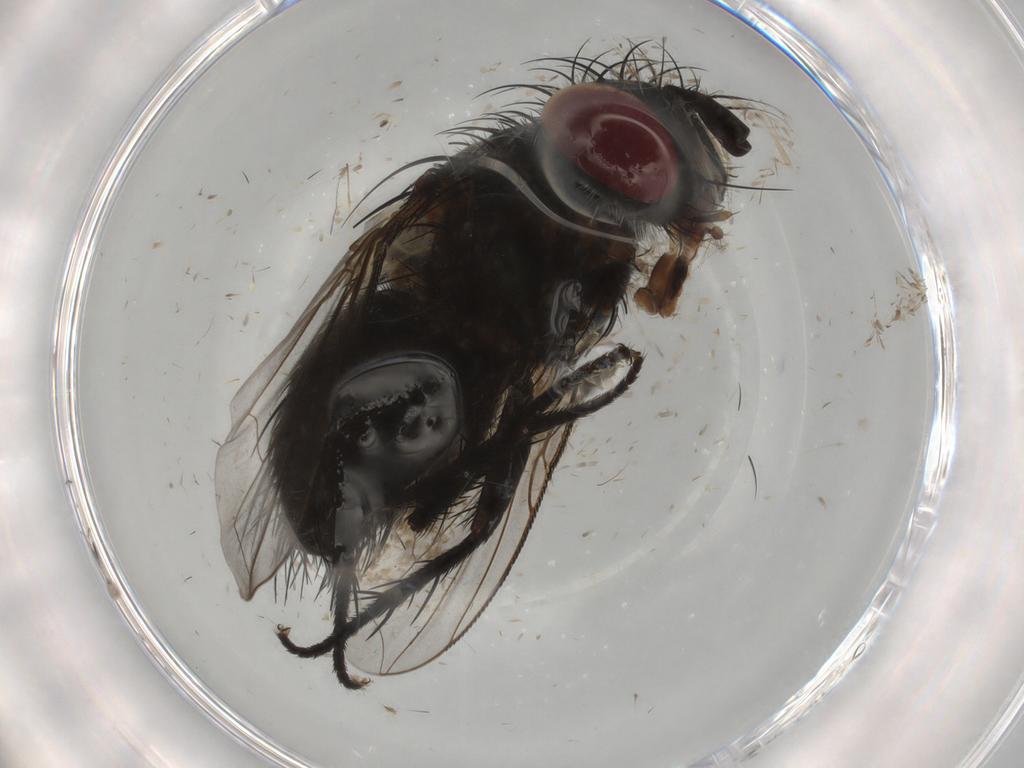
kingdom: Animalia
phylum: Arthropoda
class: Insecta
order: Diptera
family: Cecidomyiidae
